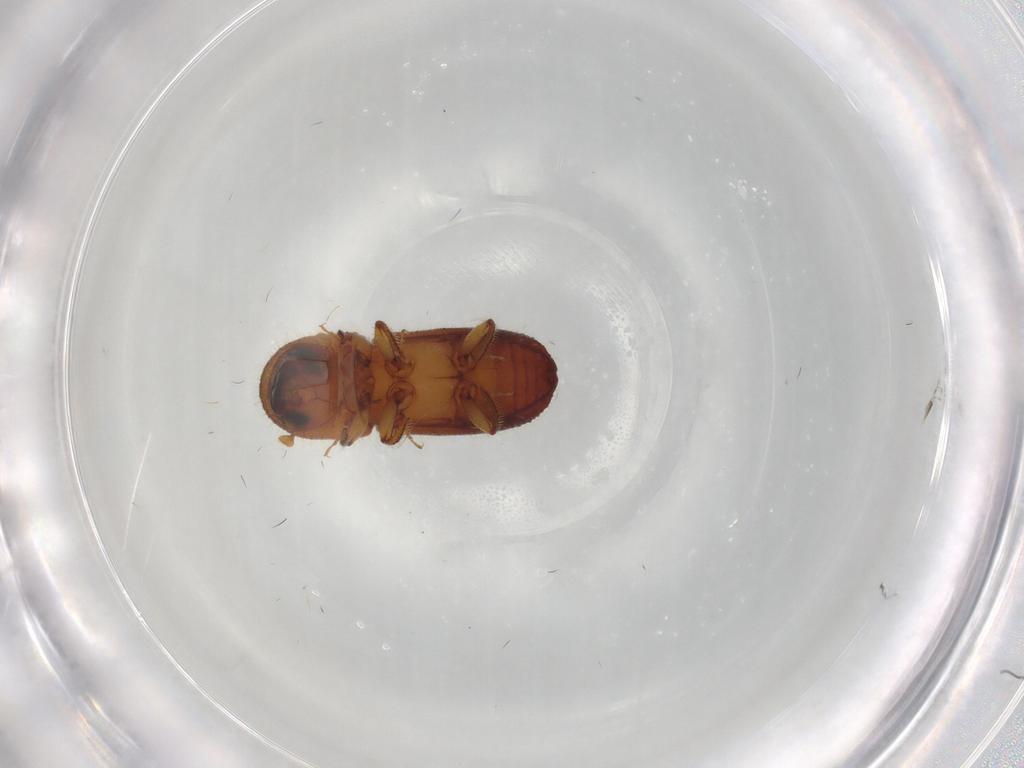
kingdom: Animalia
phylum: Arthropoda
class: Insecta
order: Coleoptera
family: Curculionidae
